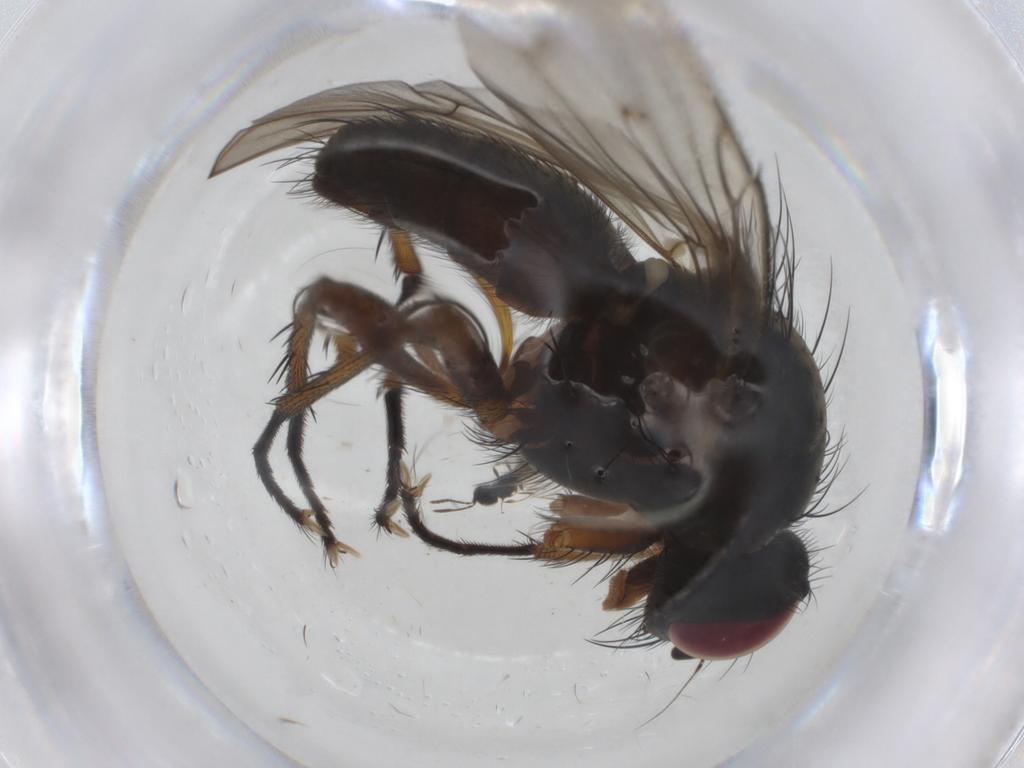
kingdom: Animalia
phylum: Arthropoda
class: Insecta
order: Diptera
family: Anthomyiidae
